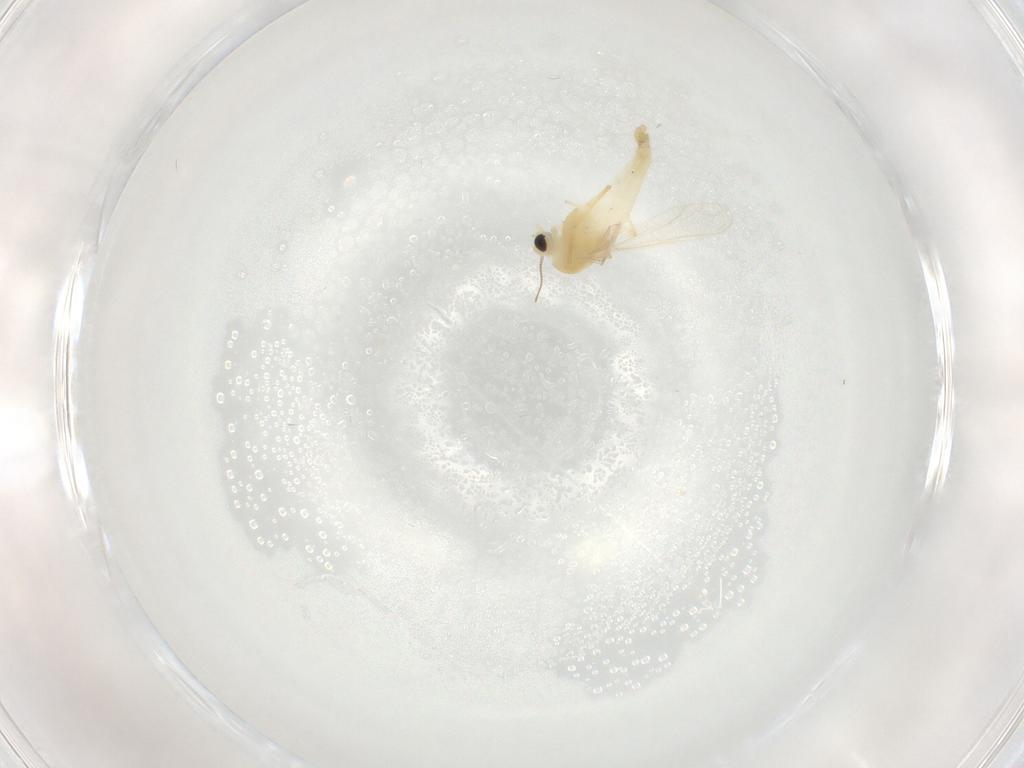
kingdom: Animalia
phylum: Arthropoda
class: Insecta
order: Diptera
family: Chironomidae
